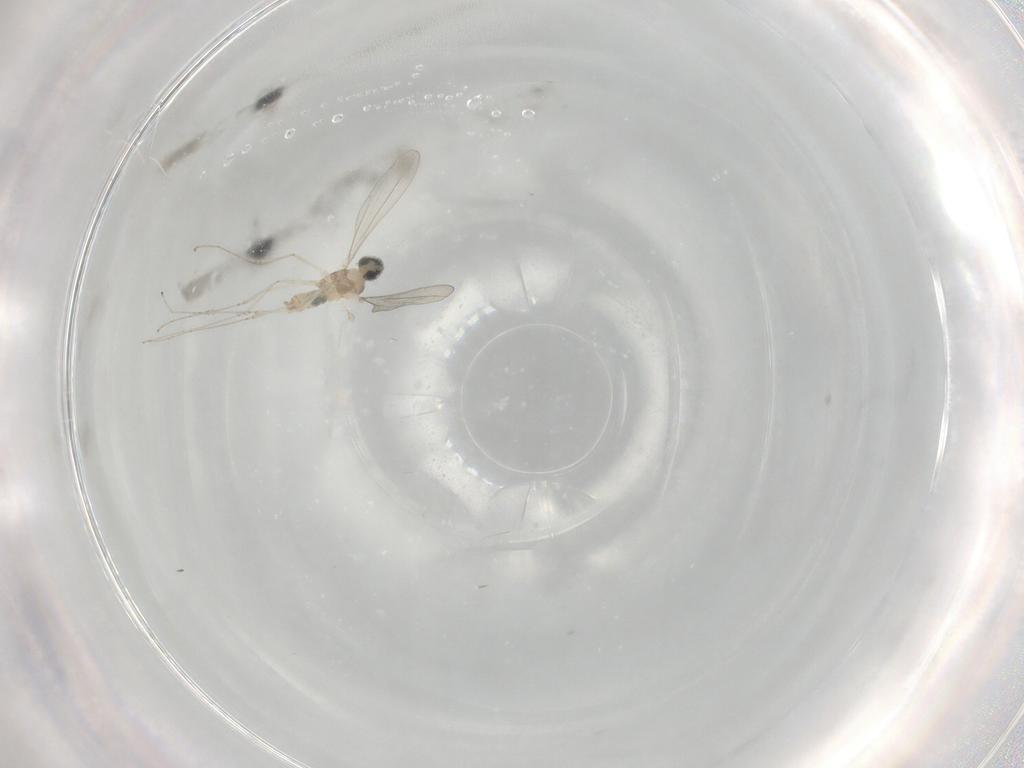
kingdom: Animalia
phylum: Arthropoda
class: Insecta
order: Diptera
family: Cecidomyiidae
